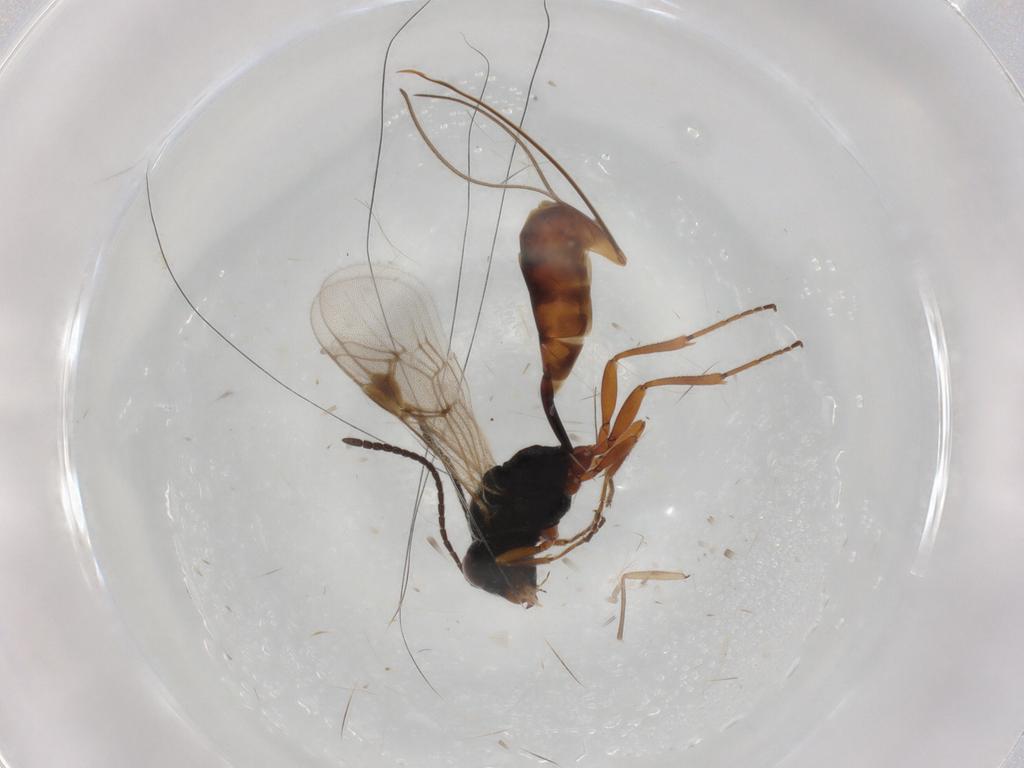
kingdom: Animalia
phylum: Arthropoda
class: Insecta
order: Hymenoptera
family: Ichneumonidae
